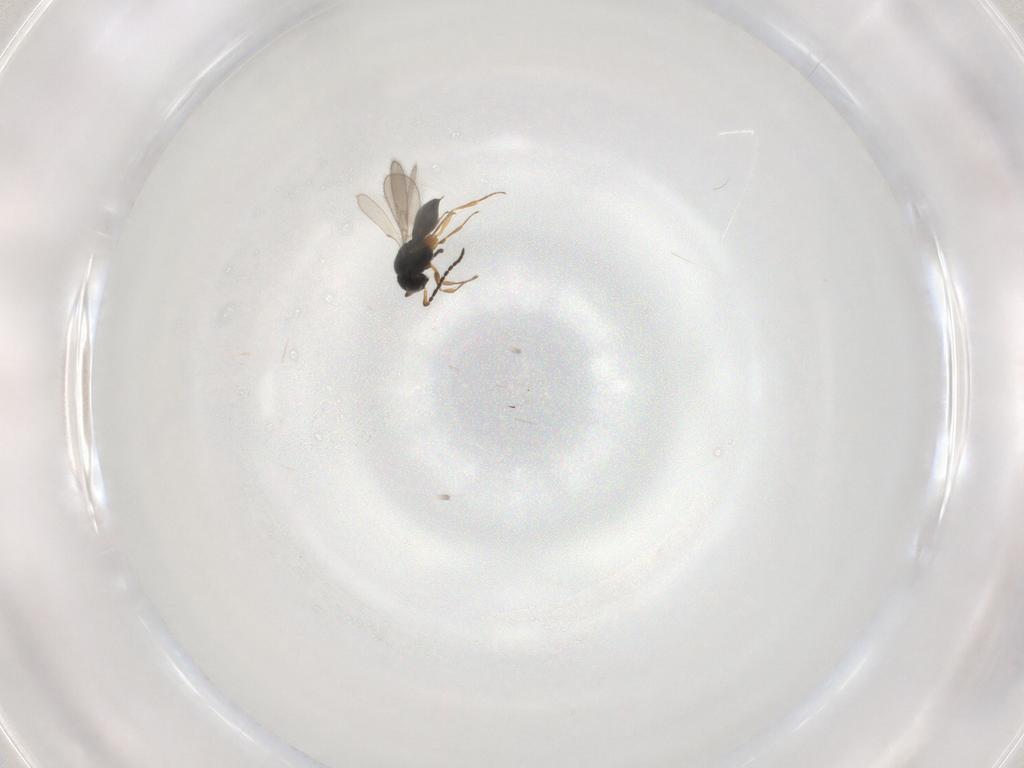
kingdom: Animalia
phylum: Arthropoda
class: Insecta
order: Hymenoptera
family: Scelionidae
